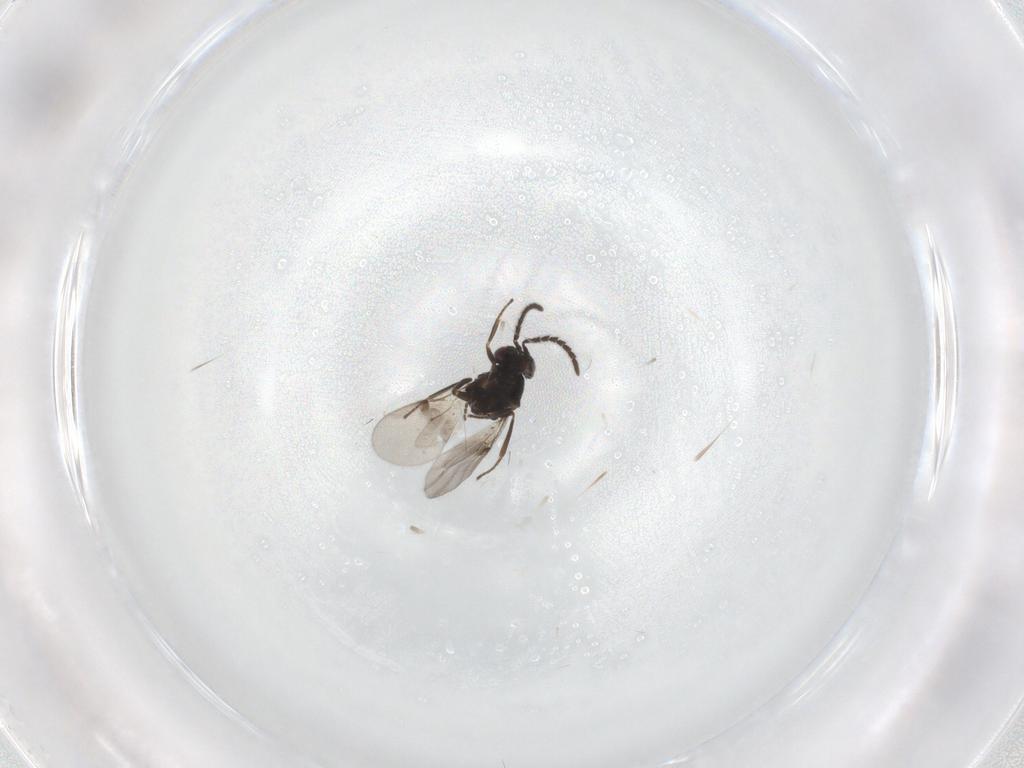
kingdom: Animalia
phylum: Arthropoda
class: Insecta
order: Hymenoptera
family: Encyrtidae
